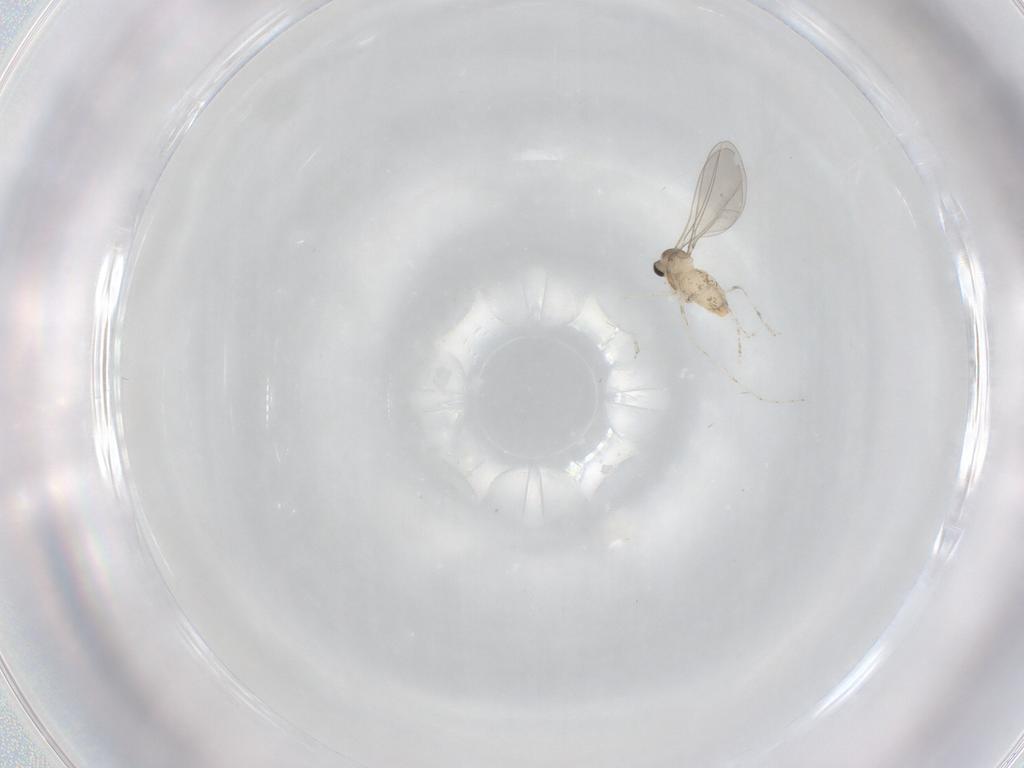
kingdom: Animalia
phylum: Arthropoda
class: Insecta
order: Diptera
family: Cecidomyiidae
